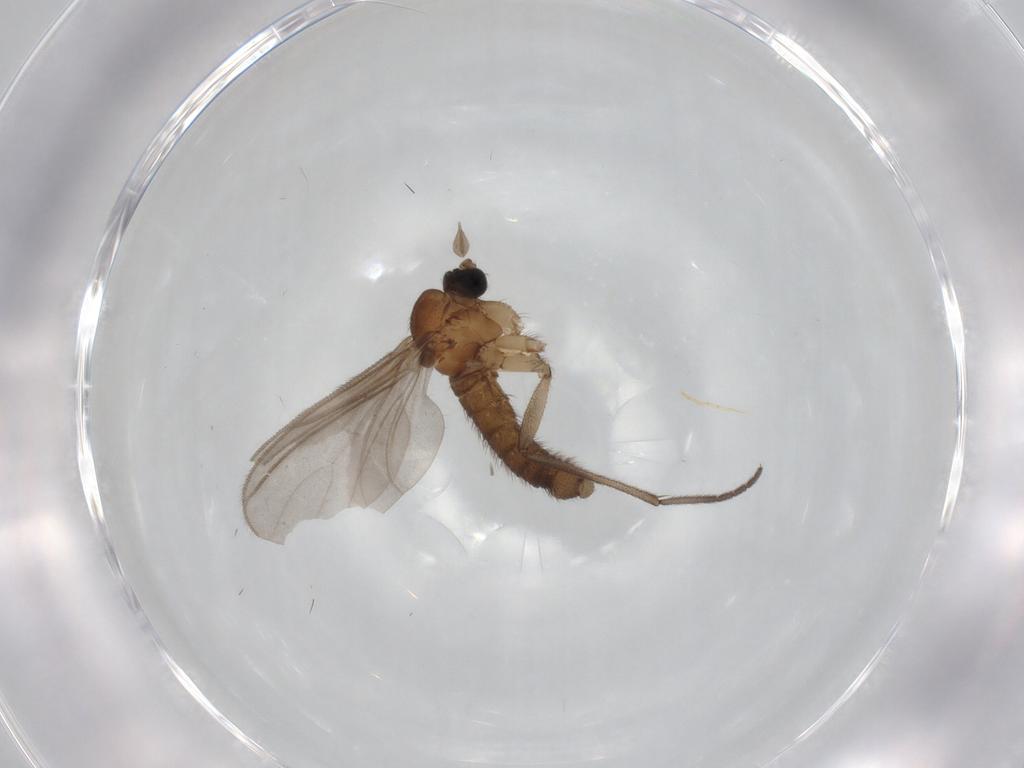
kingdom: Animalia
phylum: Arthropoda
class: Insecta
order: Diptera
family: Sciaridae
